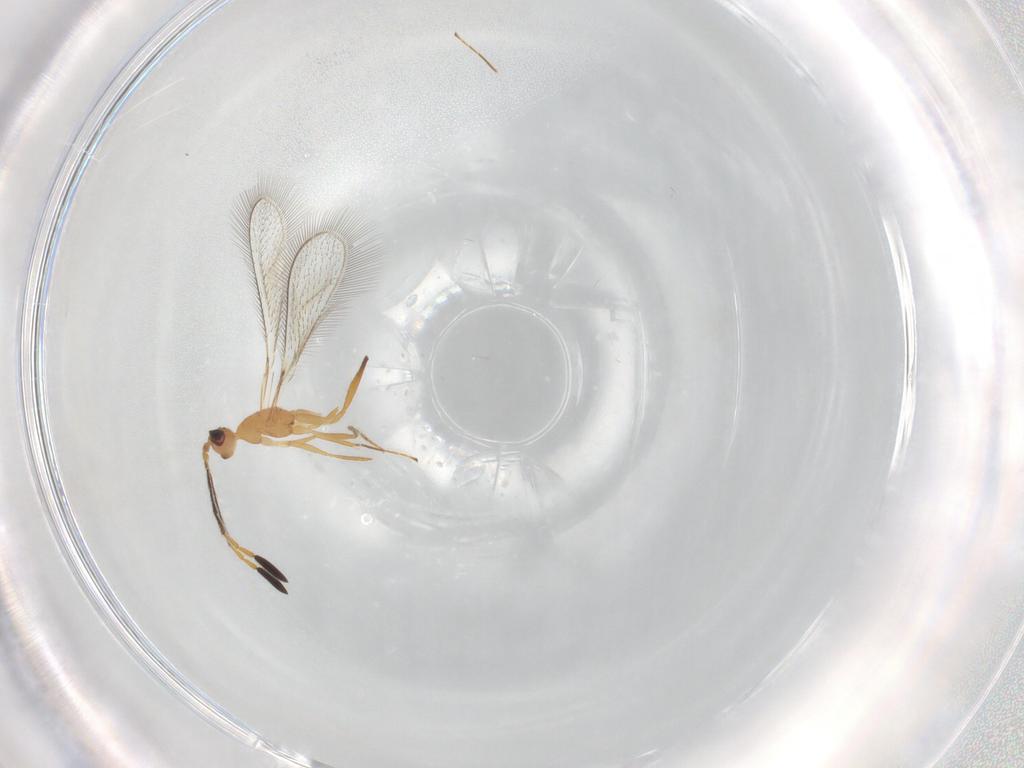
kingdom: Animalia
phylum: Arthropoda
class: Insecta
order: Hymenoptera
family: Mymaridae
